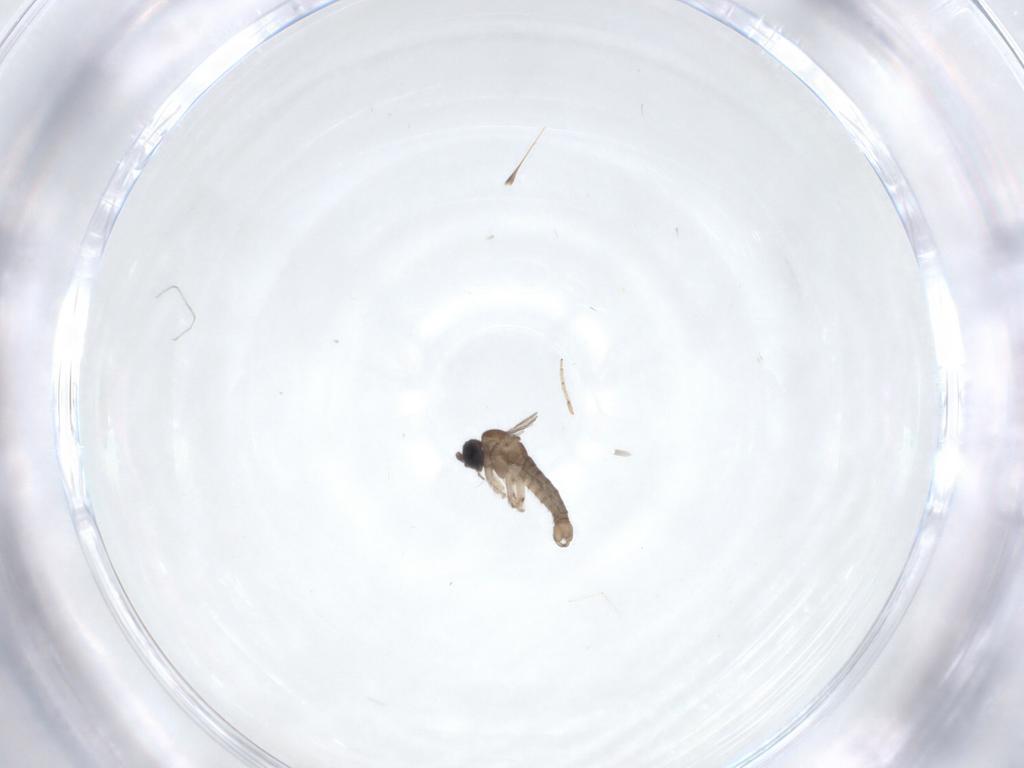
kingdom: Animalia
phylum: Arthropoda
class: Insecta
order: Diptera
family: Sciaridae
